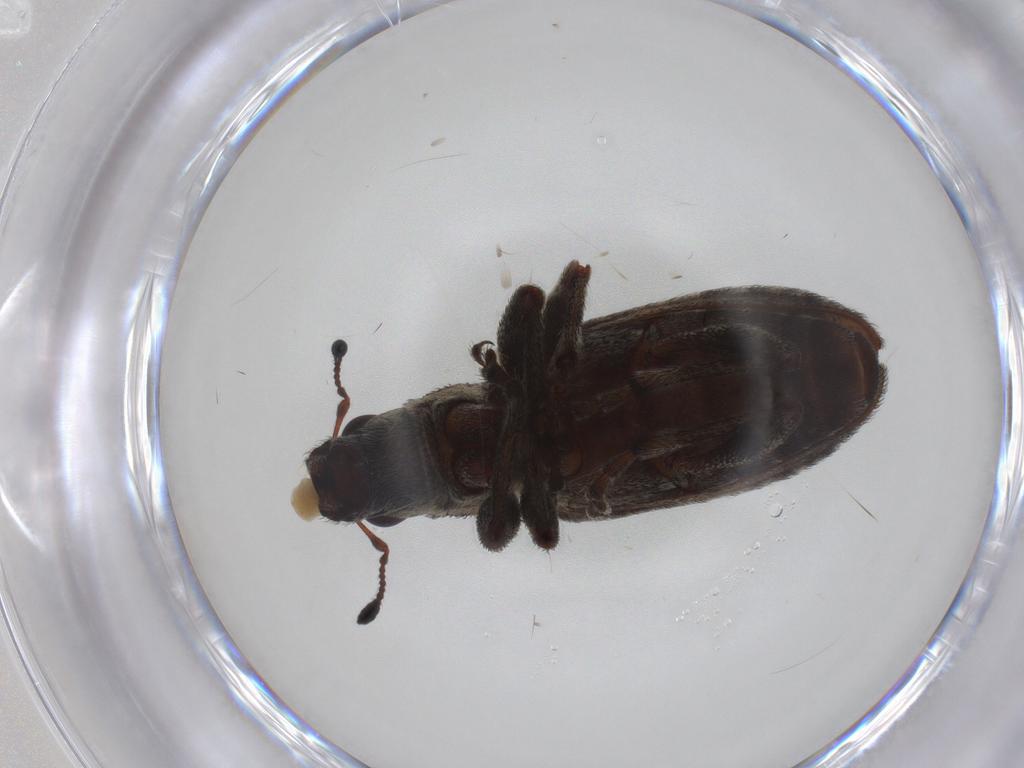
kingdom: Animalia
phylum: Arthropoda
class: Insecta
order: Coleoptera
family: Curculionidae
